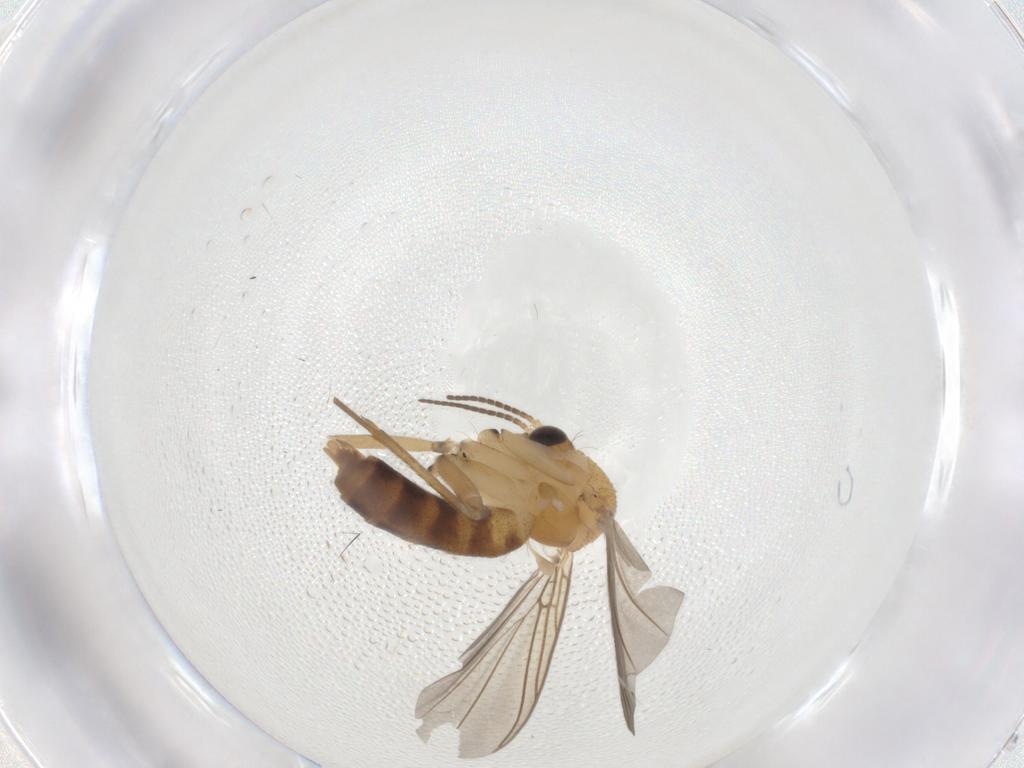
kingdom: Animalia
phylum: Arthropoda
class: Insecta
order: Diptera
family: Mycetophilidae
